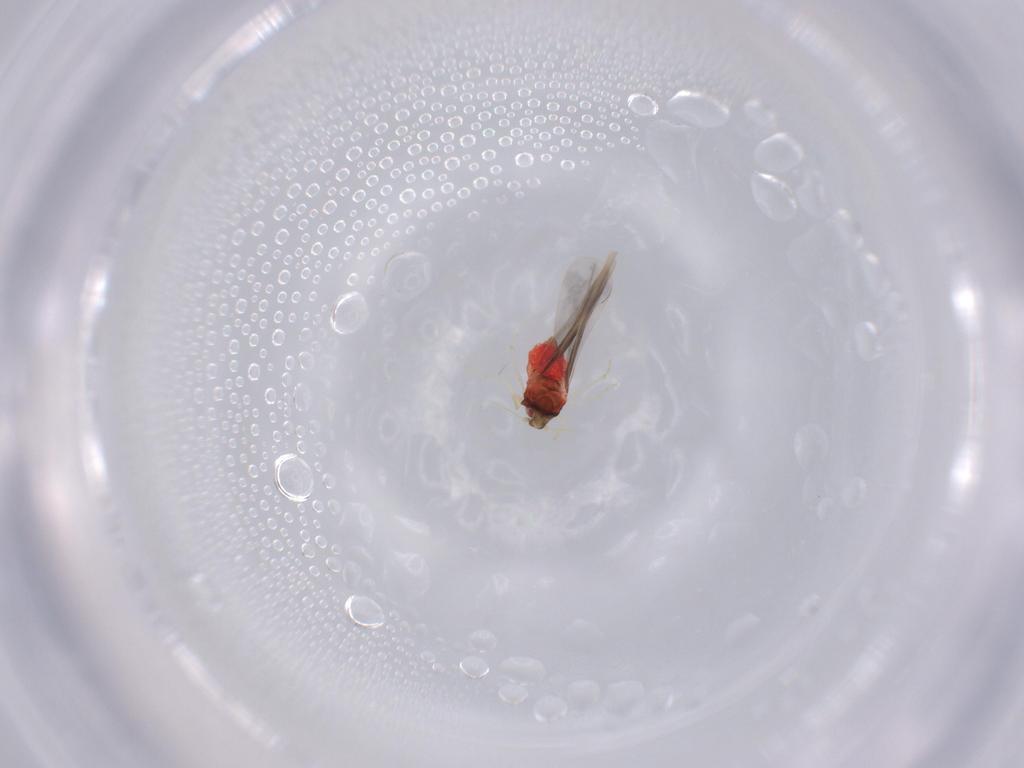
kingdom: Animalia
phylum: Arthropoda
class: Insecta
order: Hemiptera
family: Aleyrodidae
